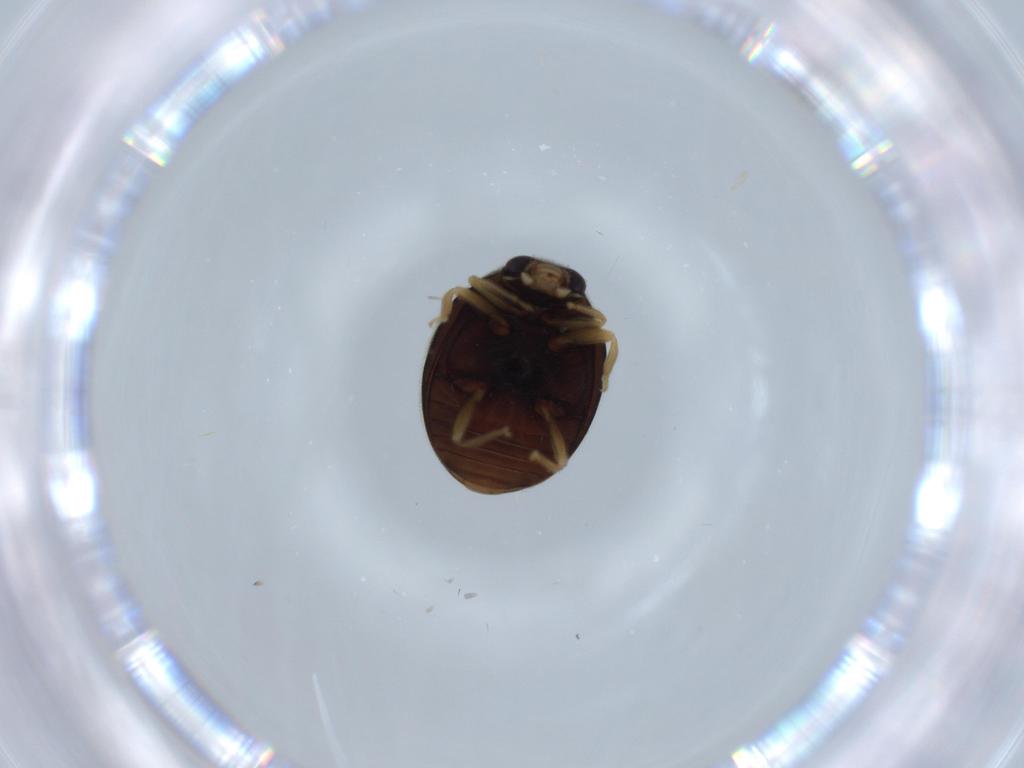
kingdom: Animalia
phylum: Arthropoda
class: Insecta
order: Coleoptera
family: Coccinellidae
